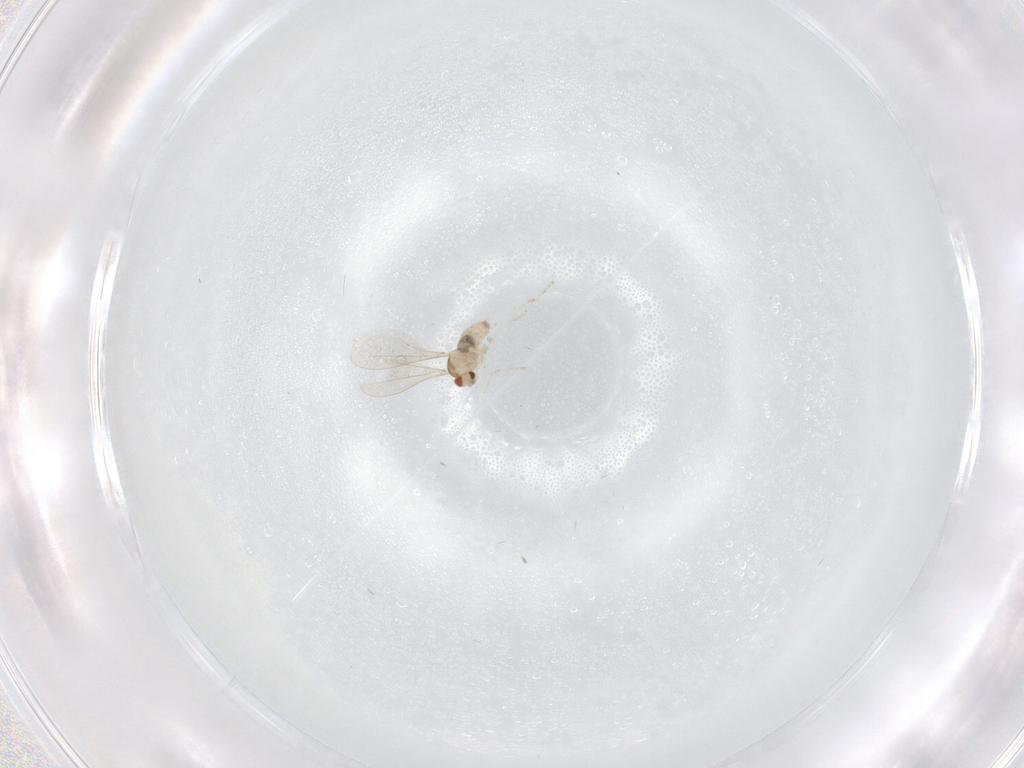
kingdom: Animalia
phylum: Arthropoda
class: Insecta
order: Diptera
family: Cecidomyiidae
